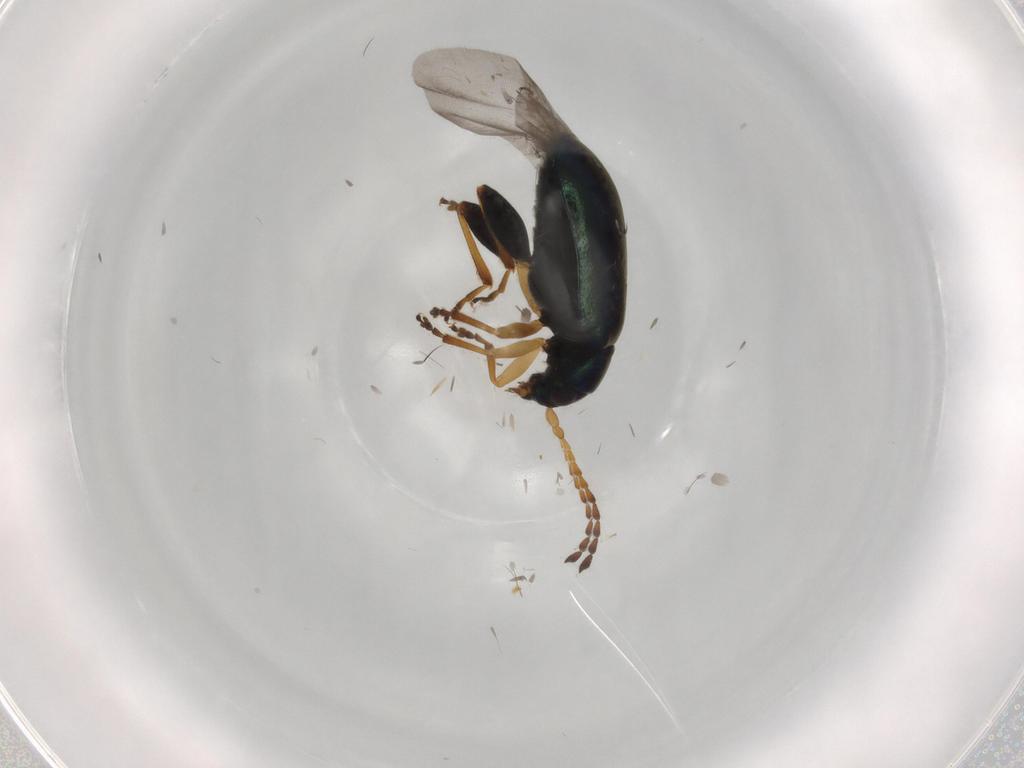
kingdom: Animalia
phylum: Arthropoda
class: Insecta
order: Coleoptera
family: Chrysomelidae
